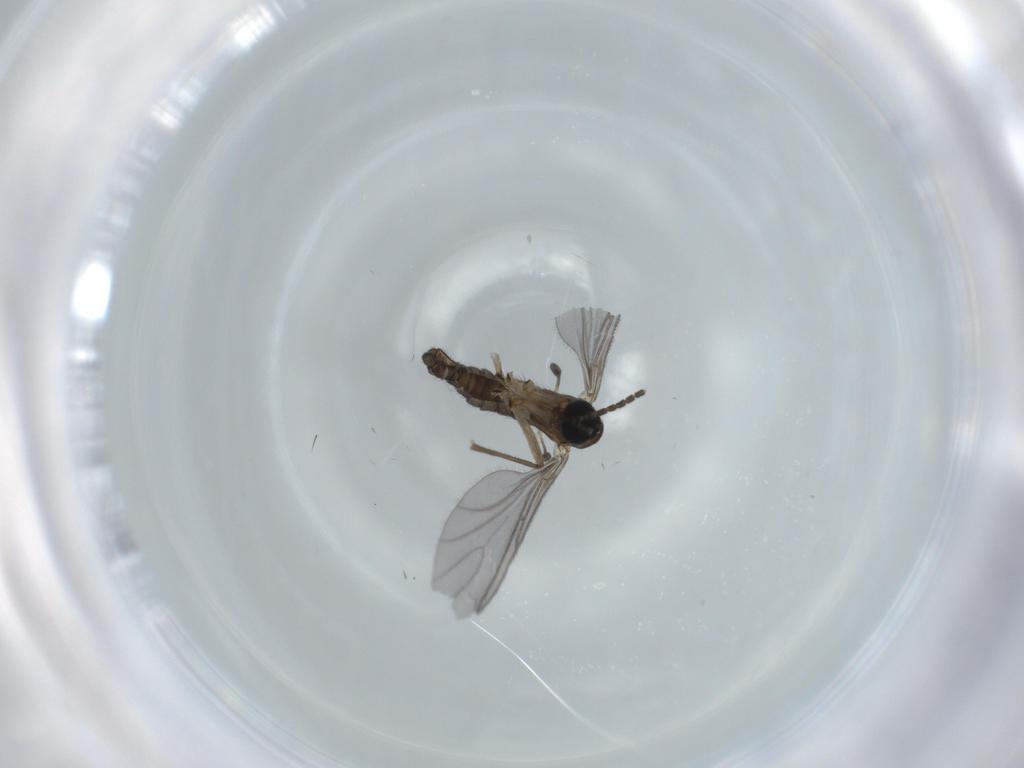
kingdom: Animalia
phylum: Arthropoda
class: Insecta
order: Diptera
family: Sciaridae
